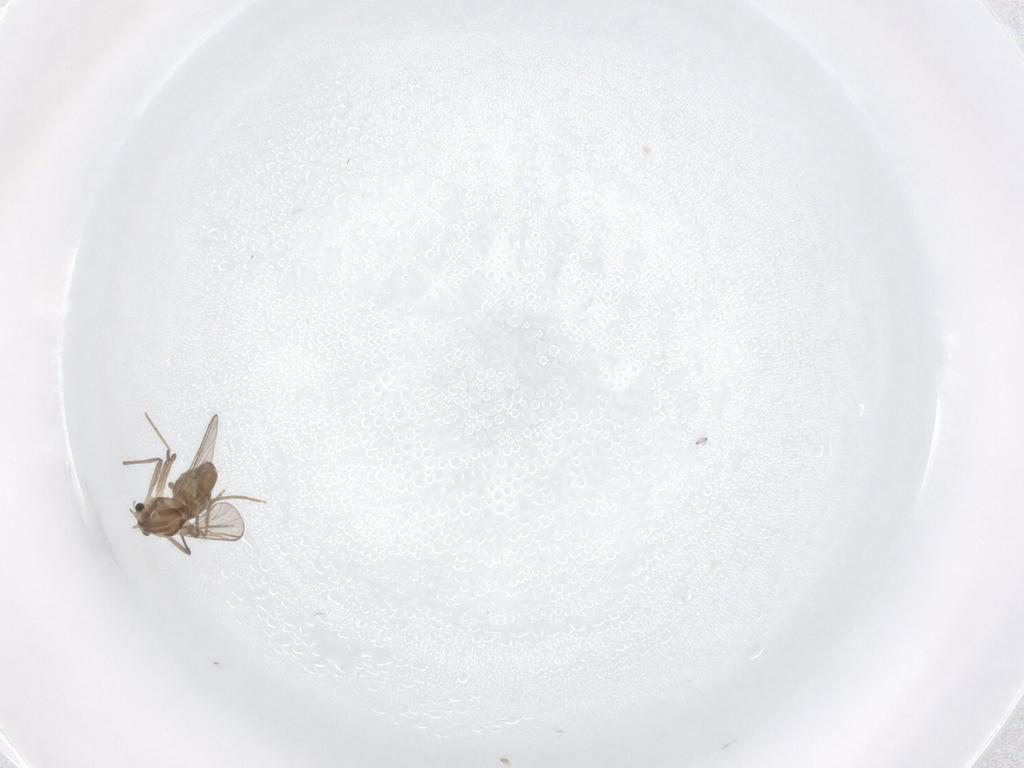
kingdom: Animalia
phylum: Arthropoda
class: Insecta
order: Diptera
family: Chironomidae
